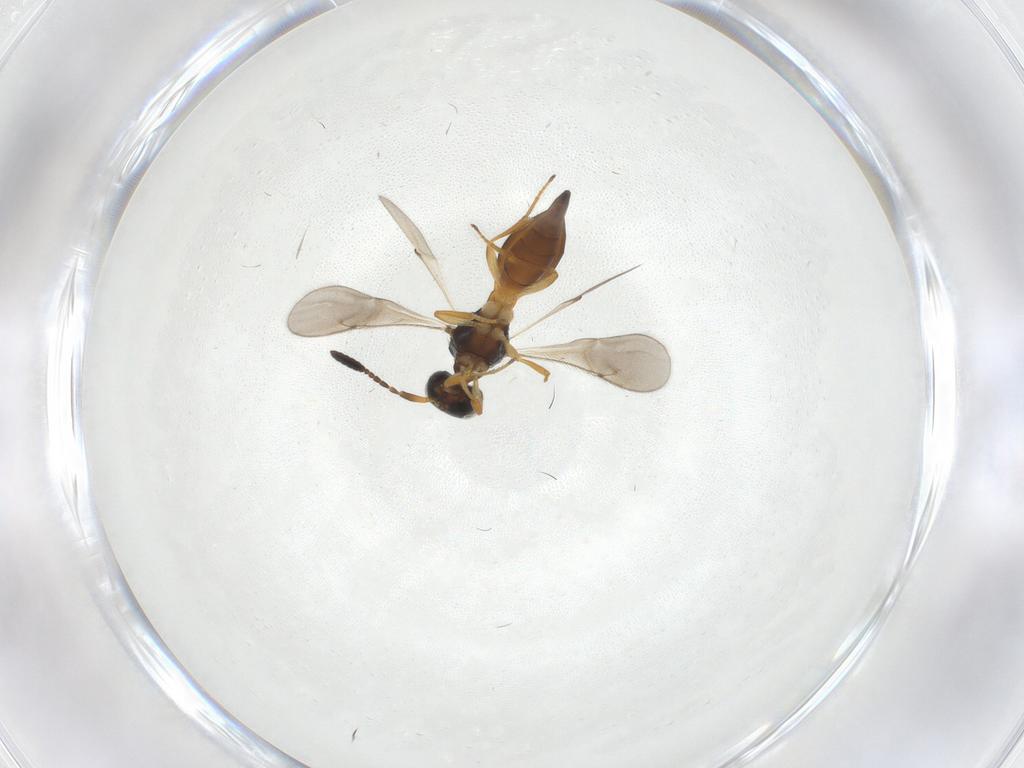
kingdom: Animalia
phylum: Arthropoda
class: Insecta
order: Hymenoptera
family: Scelionidae
